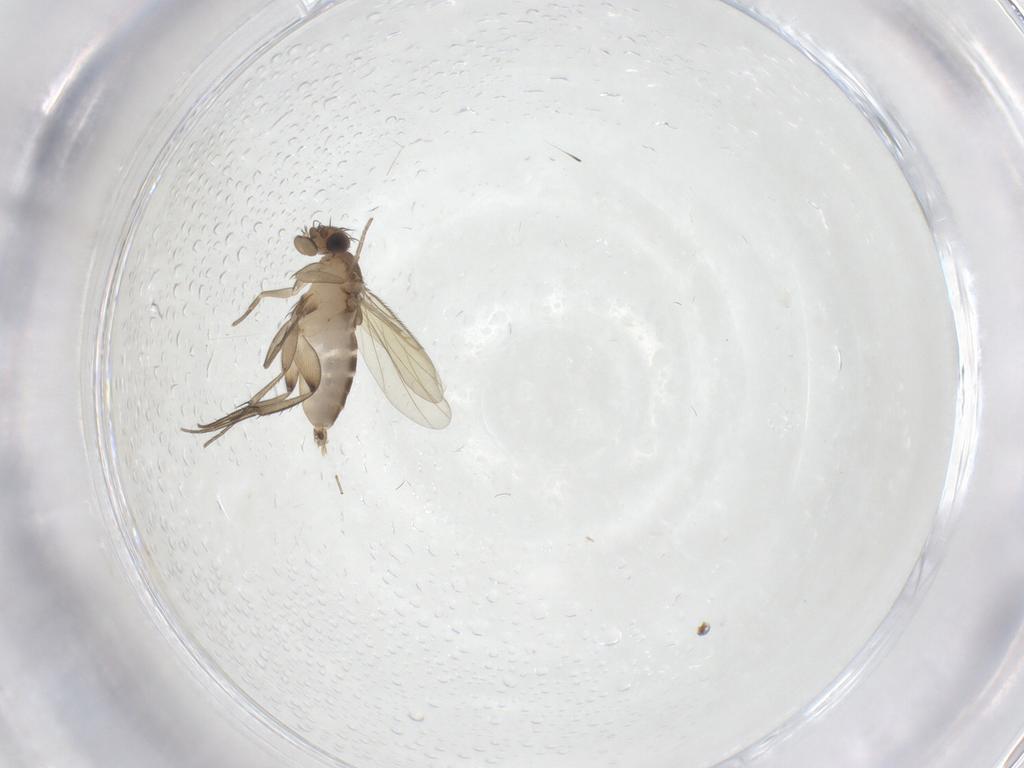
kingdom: Animalia
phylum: Arthropoda
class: Insecta
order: Diptera
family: Phoridae
